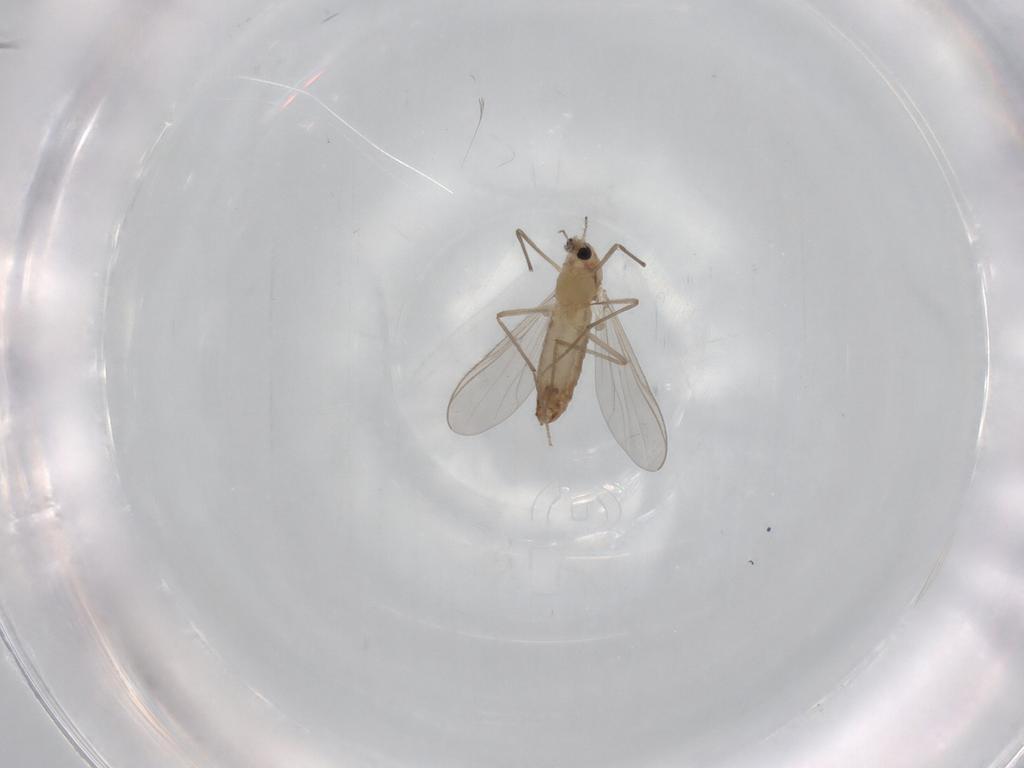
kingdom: Animalia
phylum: Arthropoda
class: Insecta
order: Diptera
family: Chironomidae
